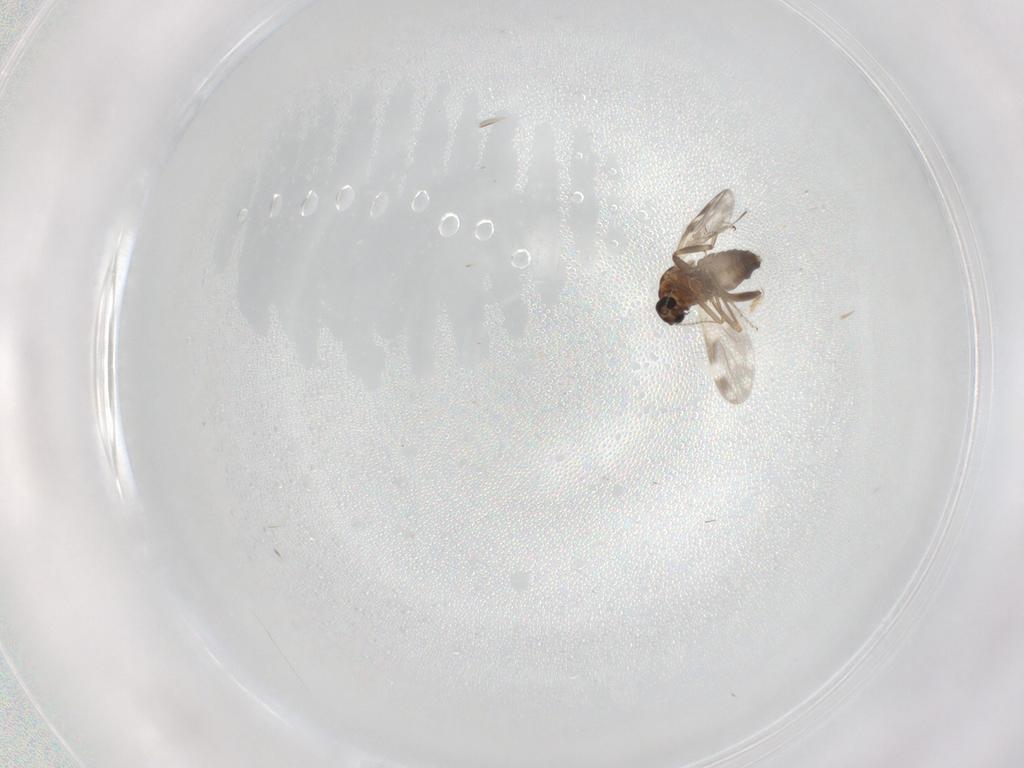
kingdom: Animalia
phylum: Arthropoda
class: Insecta
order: Diptera
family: Ceratopogonidae
